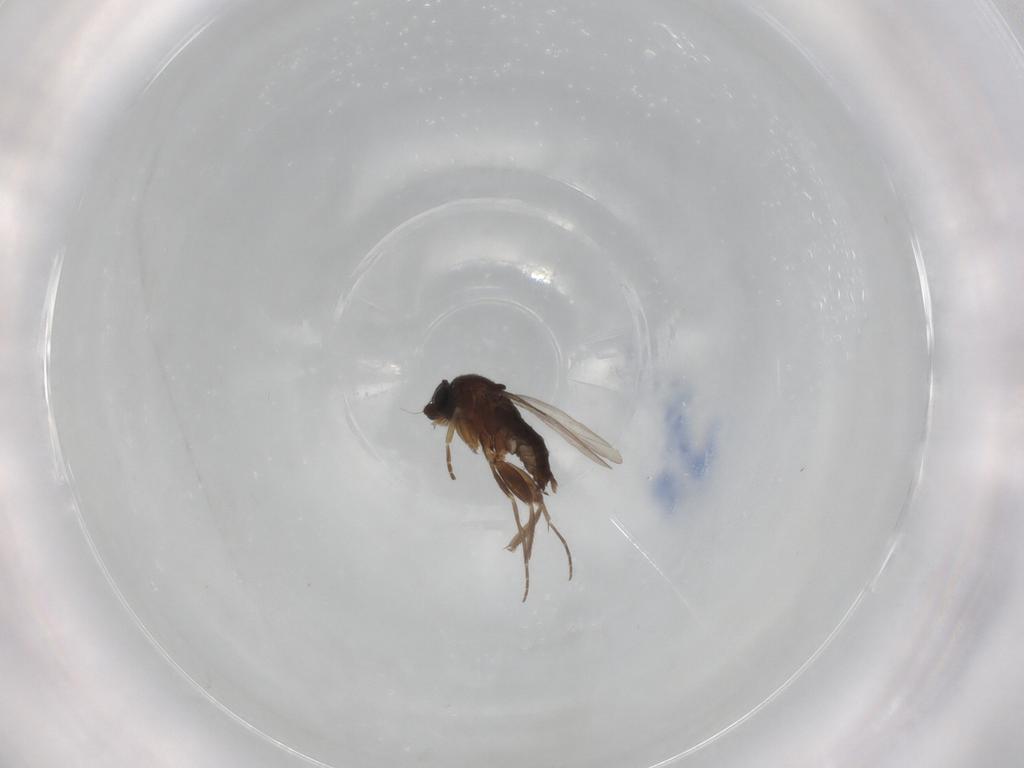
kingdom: Animalia
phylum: Arthropoda
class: Insecta
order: Diptera
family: Phoridae
